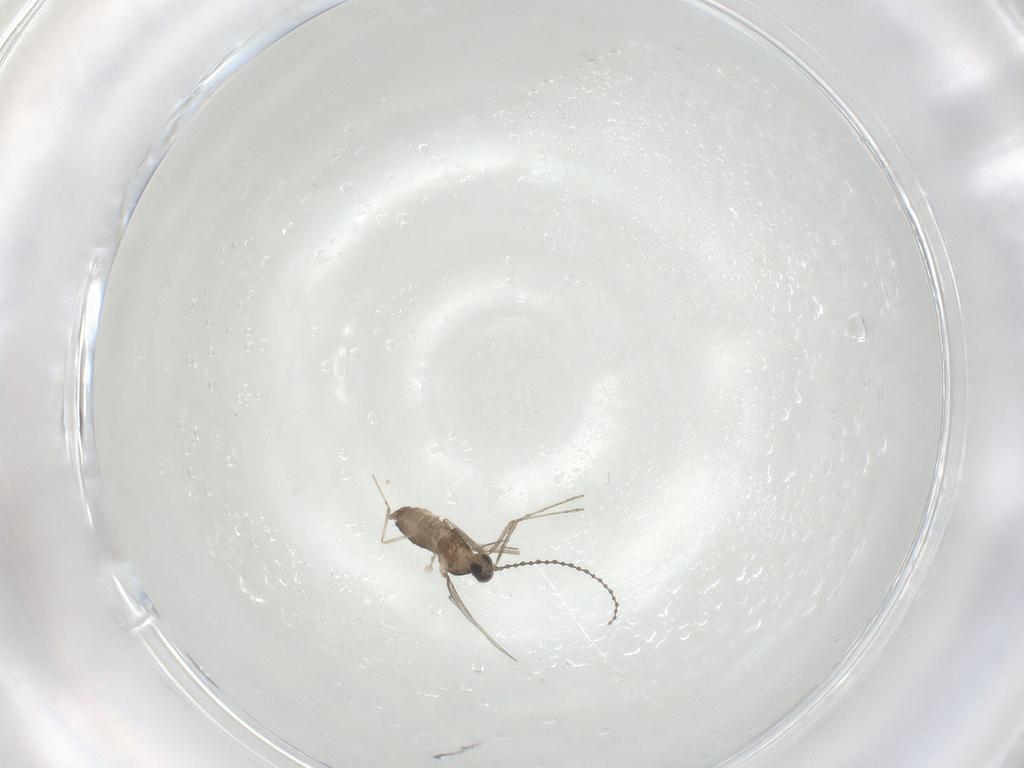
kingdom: Animalia
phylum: Arthropoda
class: Insecta
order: Diptera
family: Cecidomyiidae
